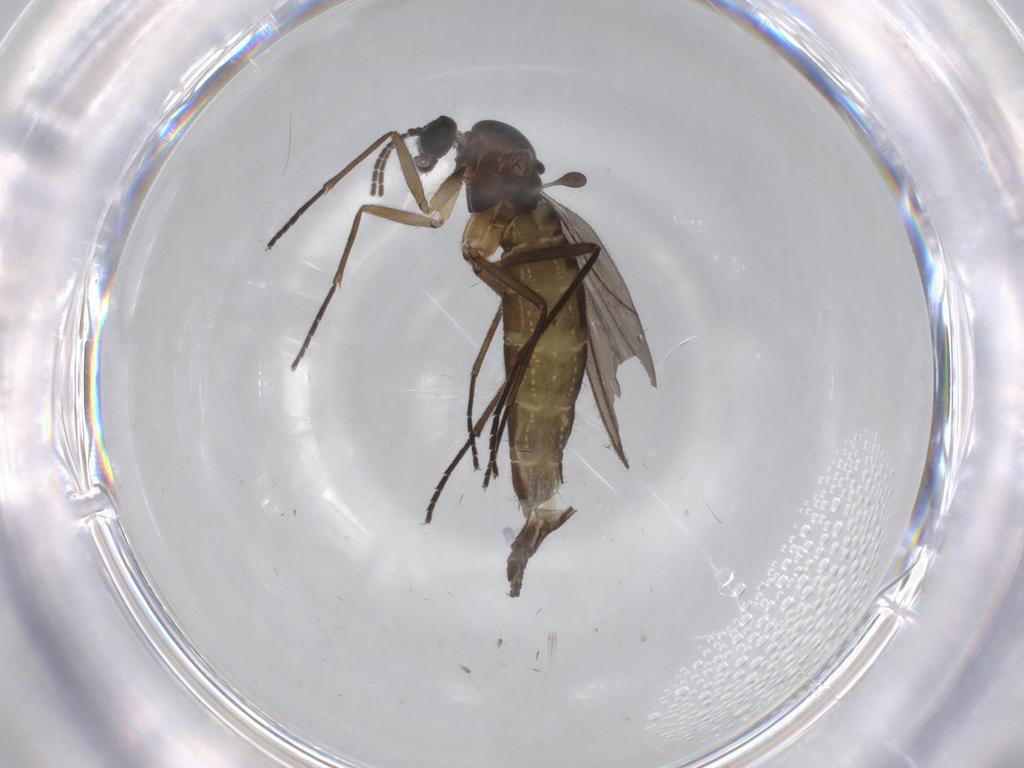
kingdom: Animalia
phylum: Arthropoda
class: Insecta
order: Diptera
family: Sciaridae
